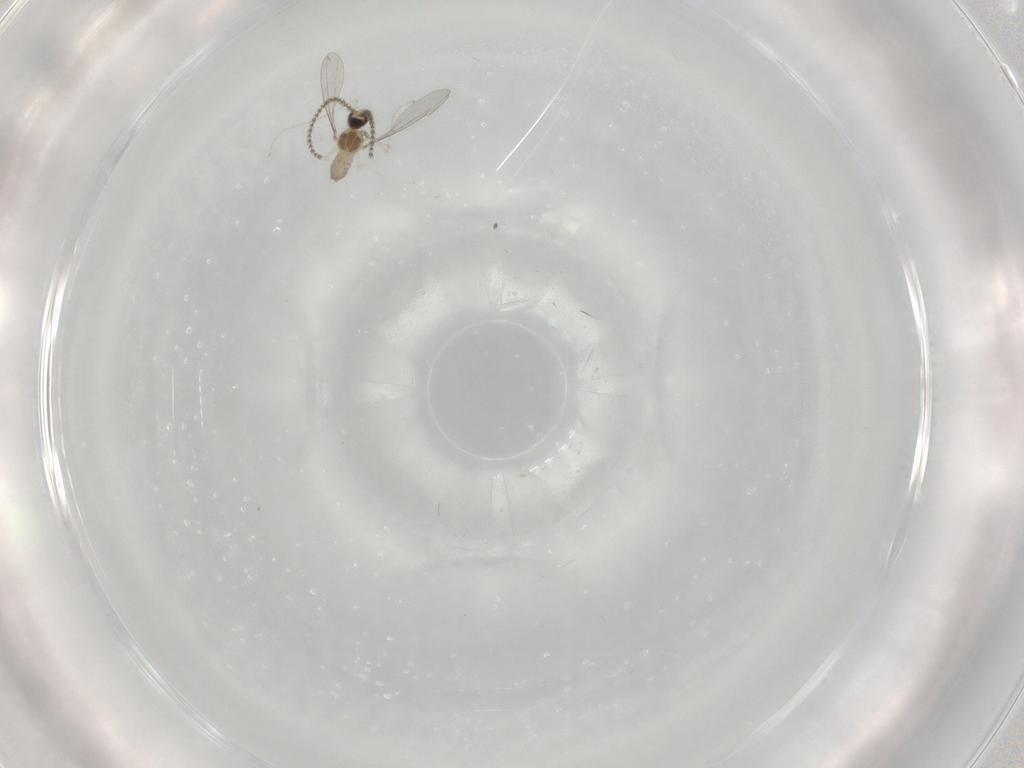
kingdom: Animalia
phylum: Arthropoda
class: Insecta
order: Diptera
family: Cecidomyiidae
